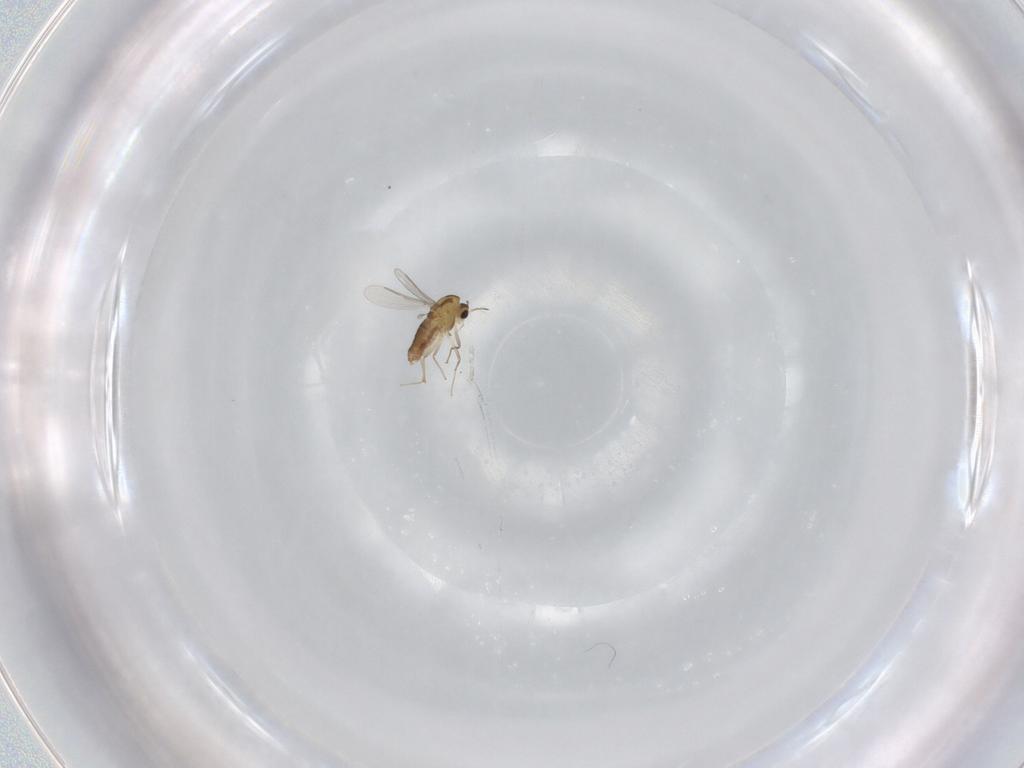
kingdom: Animalia
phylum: Arthropoda
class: Insecta
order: Diptera
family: Chironomidae
